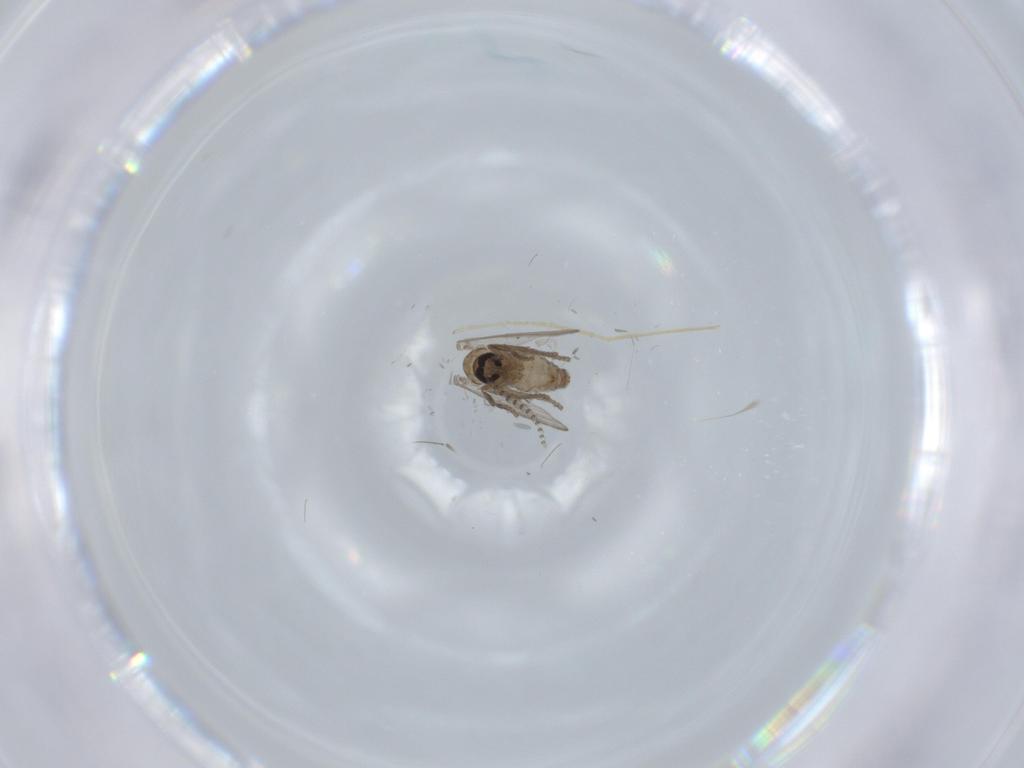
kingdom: Animalia
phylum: Arthropoda
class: Insecta
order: Diptera
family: Chironomidae
